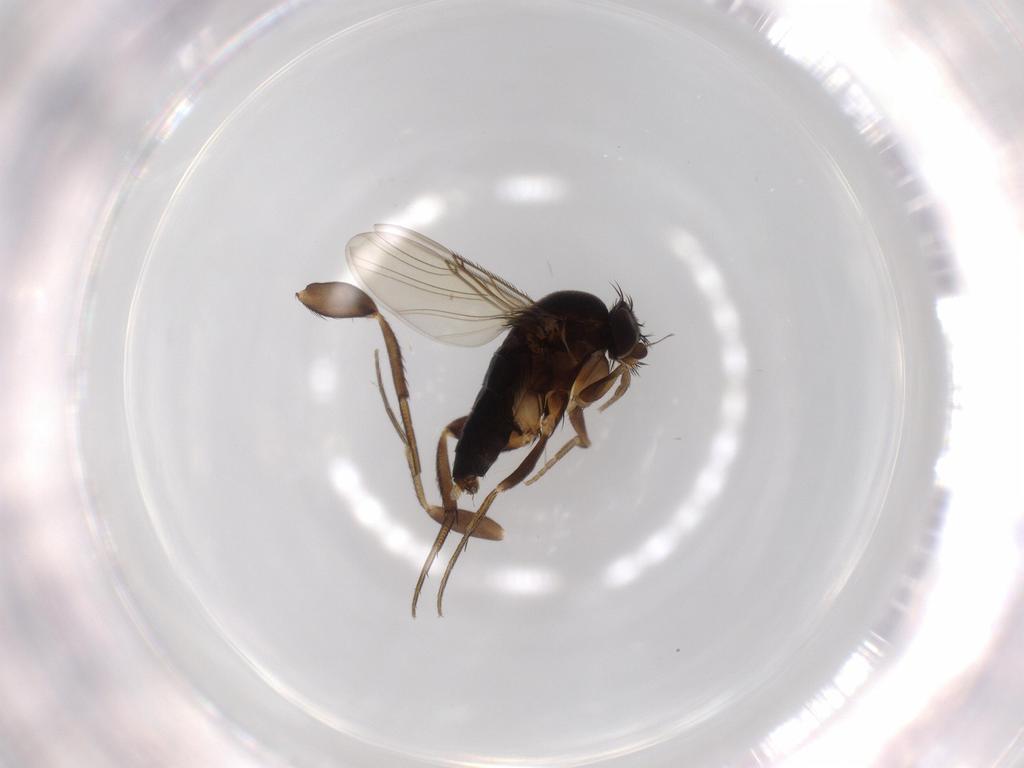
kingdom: Animalia
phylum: Arthropoda
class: Insecta
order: Diptera
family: Phoridae
